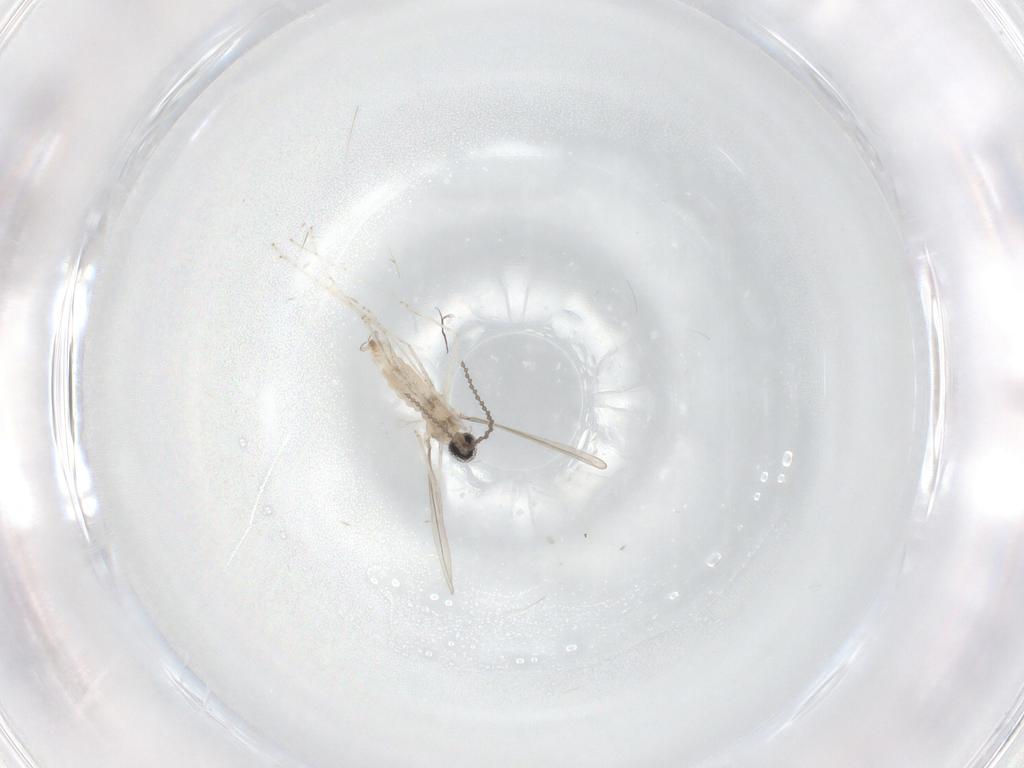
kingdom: Animalia
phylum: Arthropoda
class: Insecta
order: Diptera
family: Cecidomyiidae
